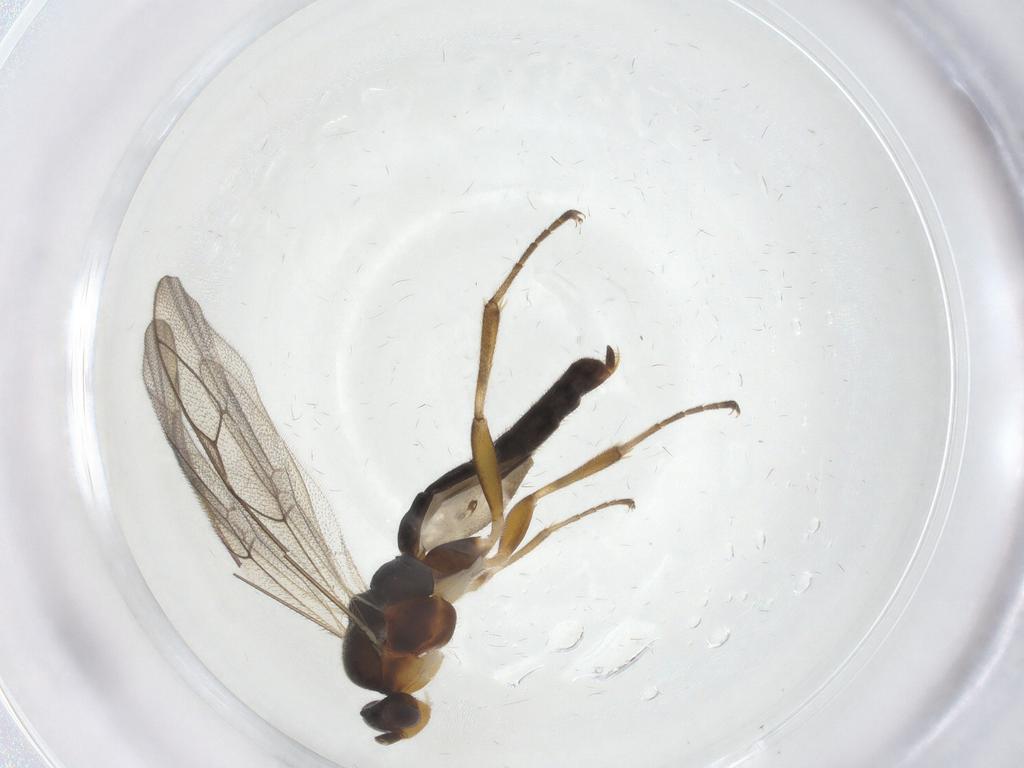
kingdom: Animalia
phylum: Arthropoda
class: Insecta
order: Hymenoptera
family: Ichneumonidae
